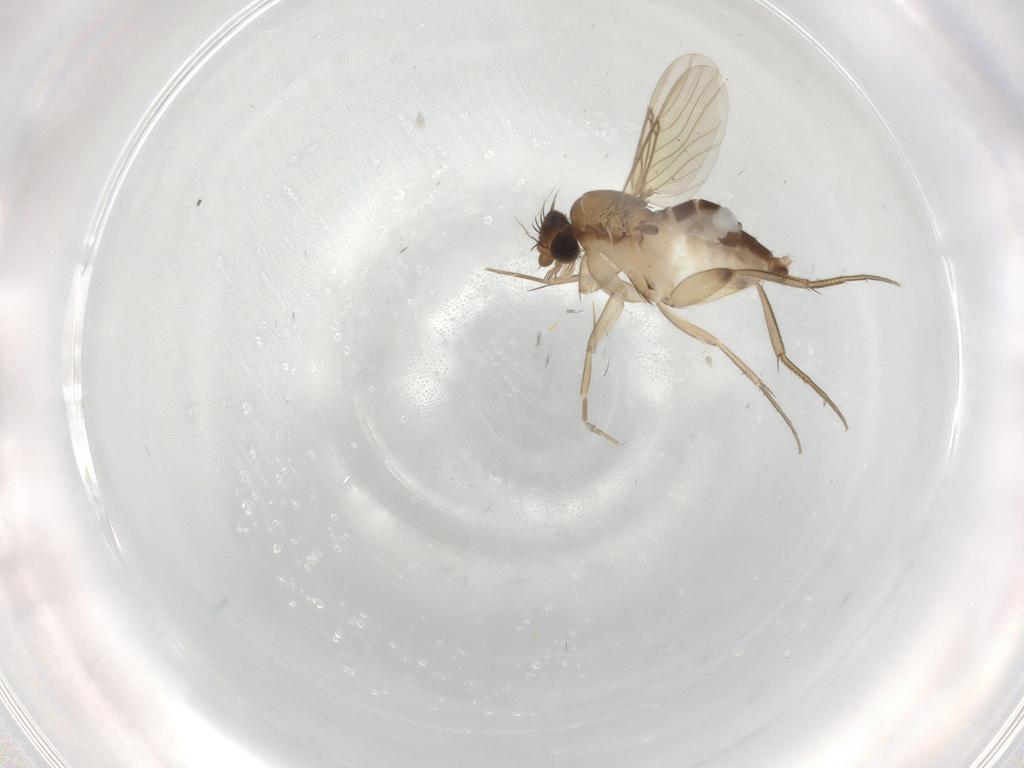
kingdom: Animalia
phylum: Arthropoda
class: Insecta
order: Diptera
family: Phoridae
